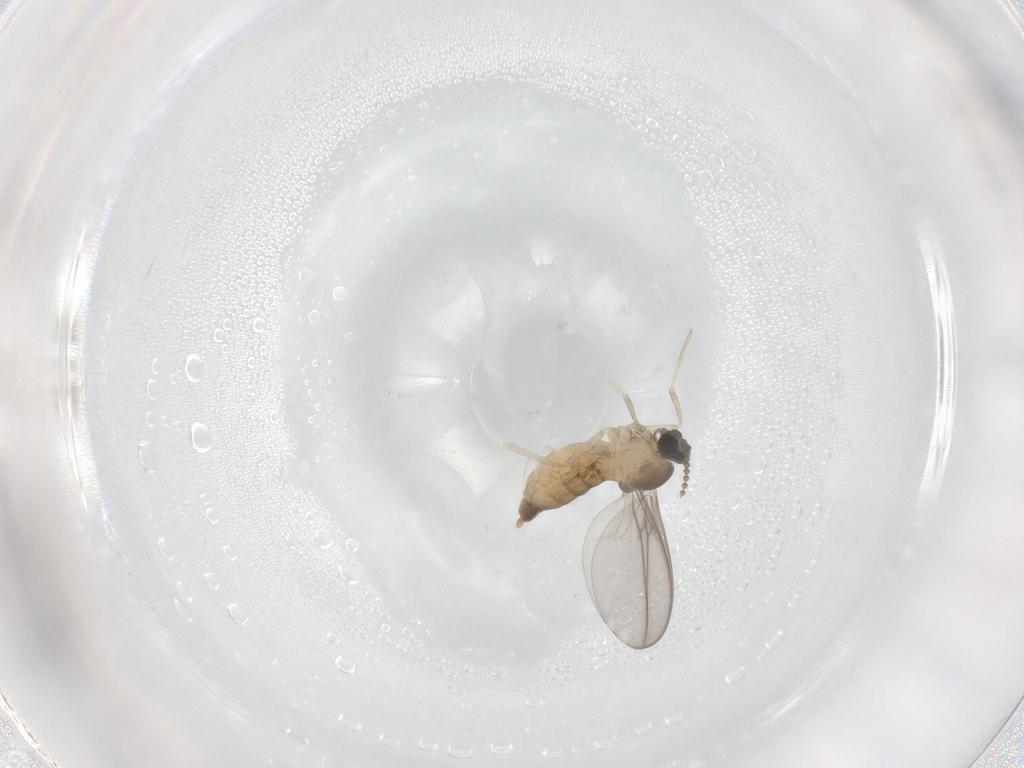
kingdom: Animalia
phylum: Arthropoda
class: Insecta
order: Diptera
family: Cecidomyiidae
